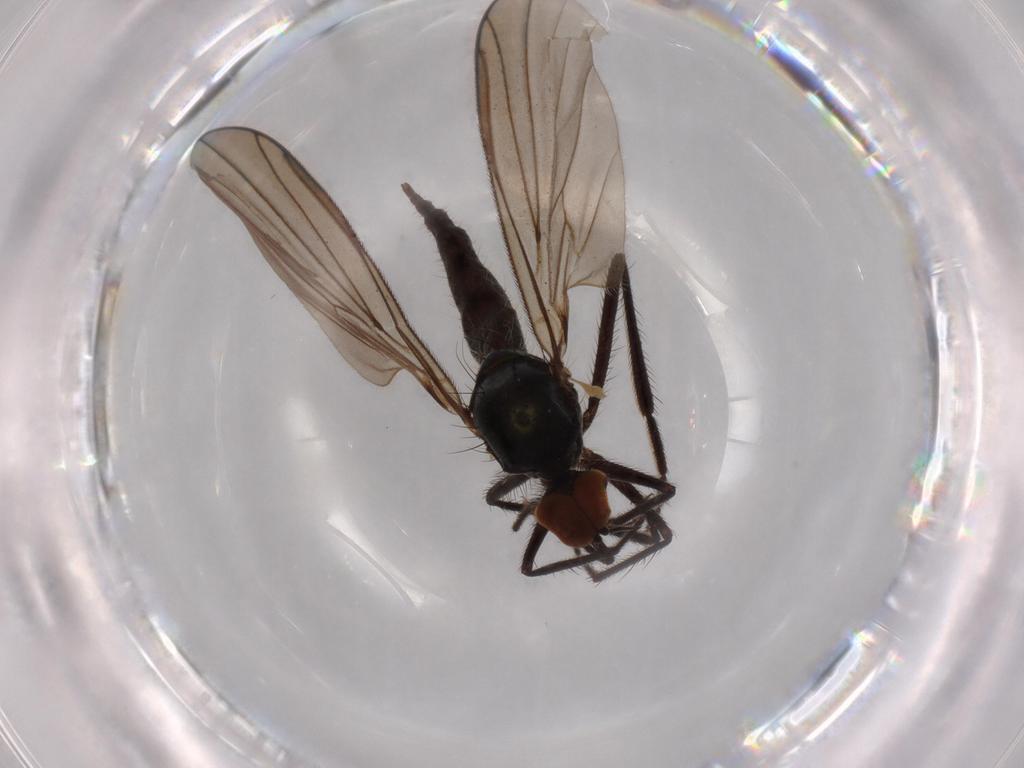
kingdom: Animalia
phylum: Arthropoda
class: Insecta
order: Diptera
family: Hybotidae
